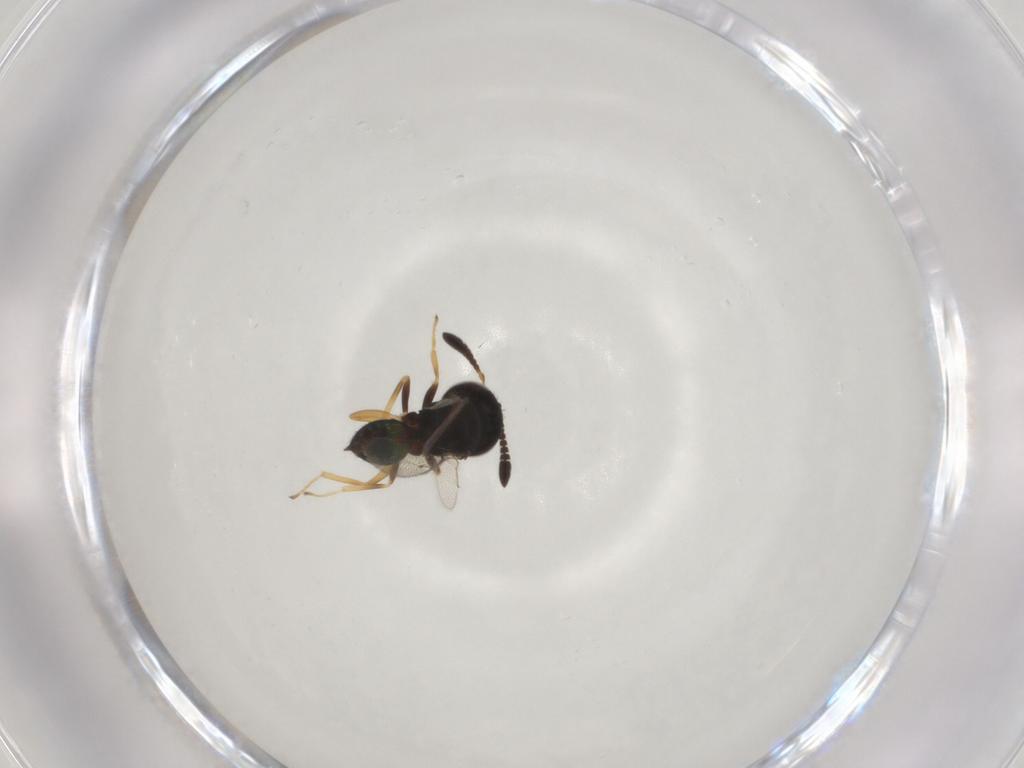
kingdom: Animalia
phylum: Arthropoda
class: Insecta
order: Hymenoptera
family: Pteromalidae
